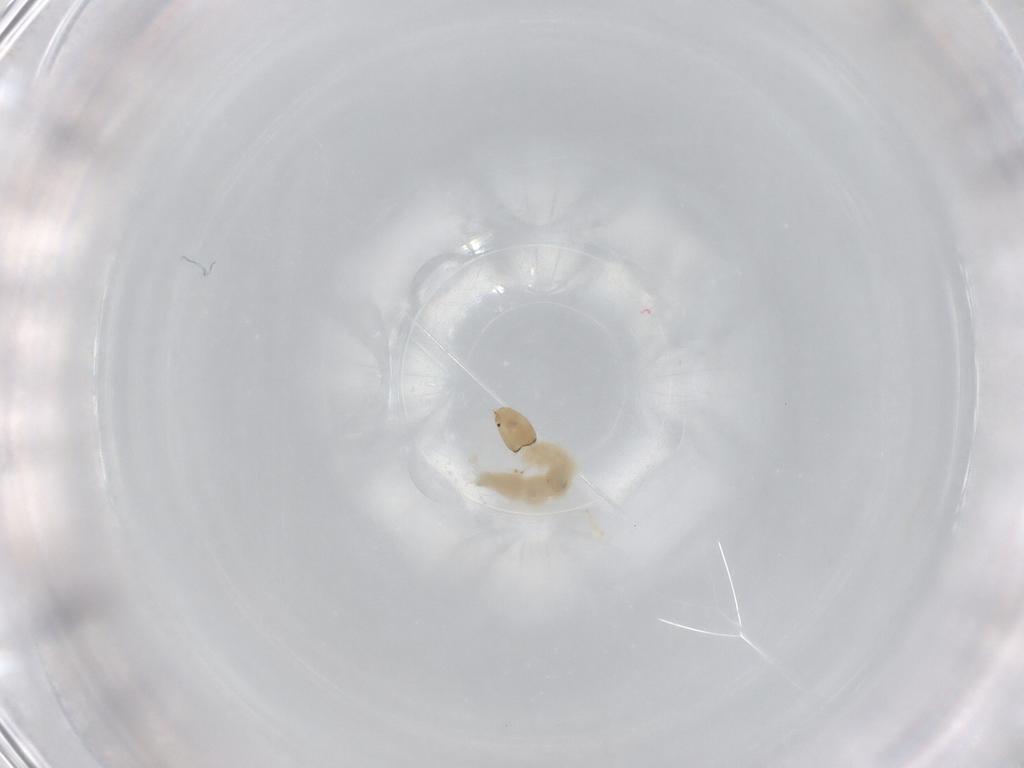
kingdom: Animalia
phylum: Arthropoda
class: Insecta
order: Diptera
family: Chironomidae
